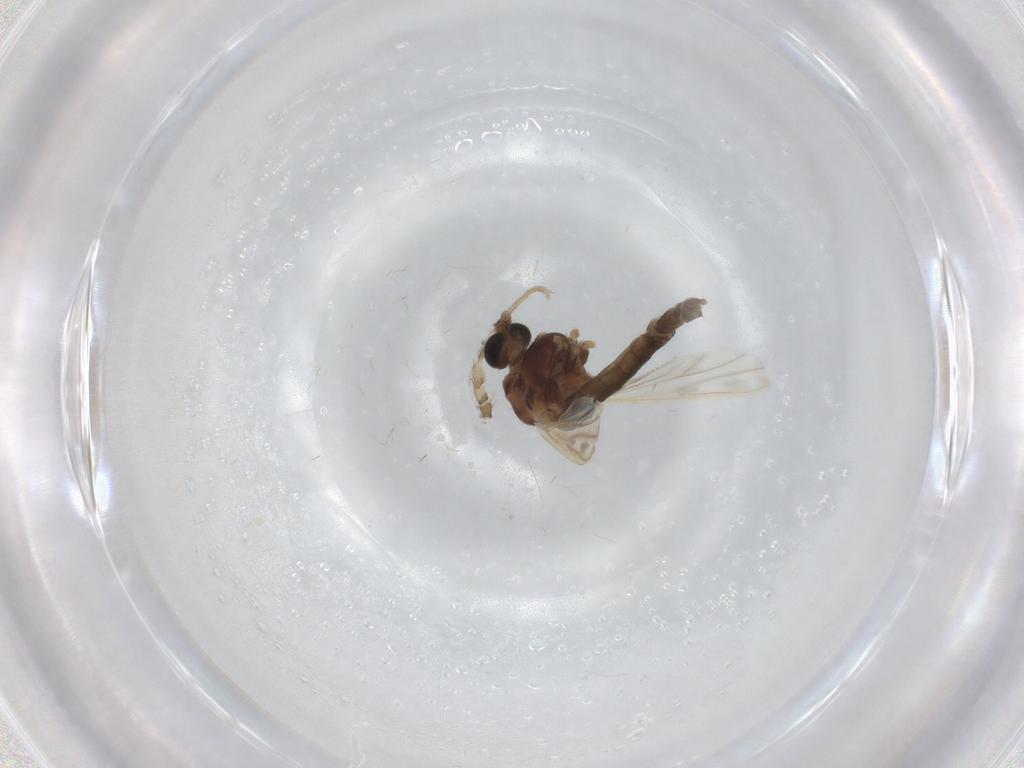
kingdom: Animalia
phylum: Arthropoda
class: Insecta
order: Diptera
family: Chironomidae
